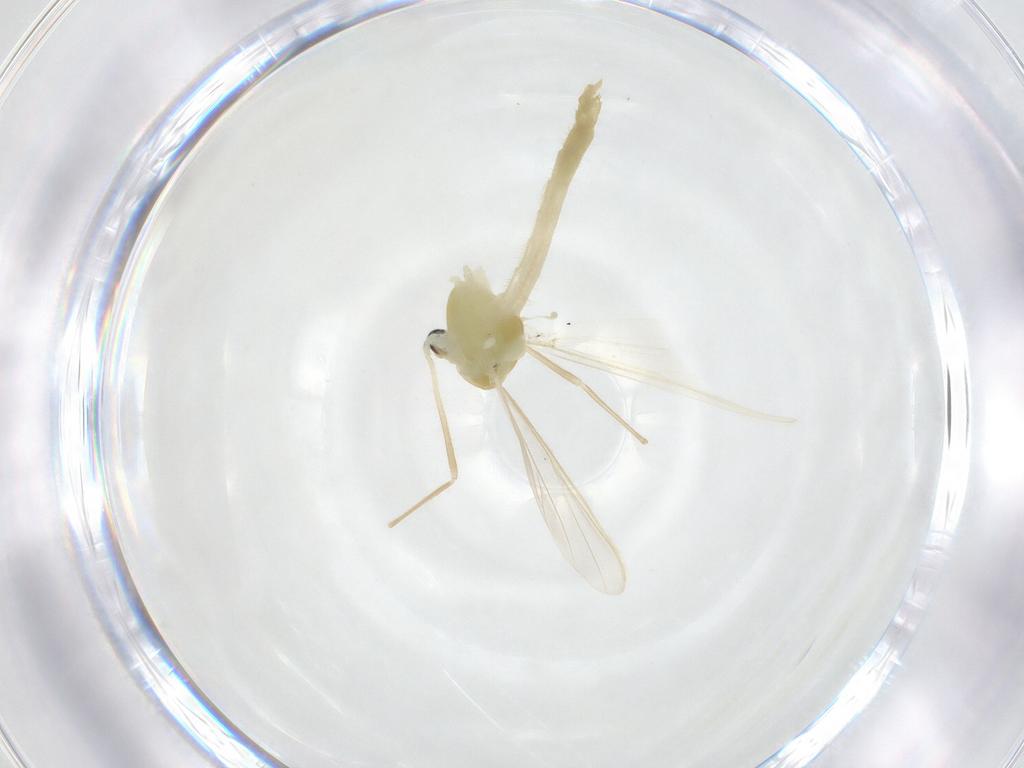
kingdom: Animalia
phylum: Arthropoda
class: Insecta
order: Diptera
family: Chironomidae
